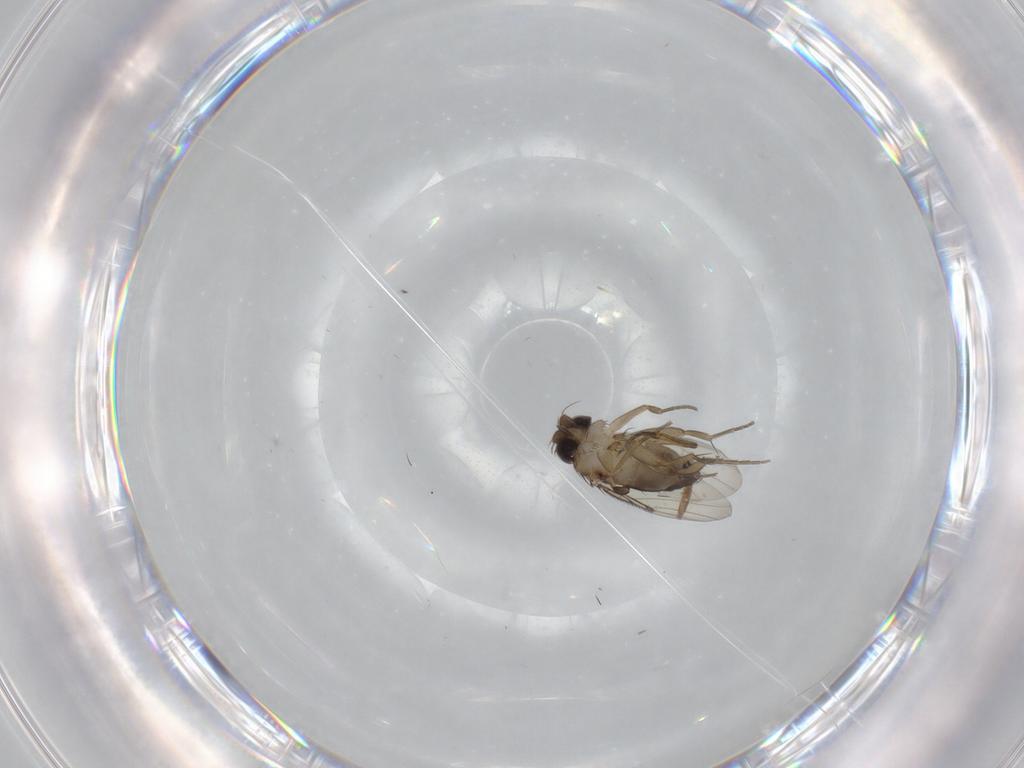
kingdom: Animalia
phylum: Arthropoda
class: Insecta
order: Diptera
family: Phoridae
